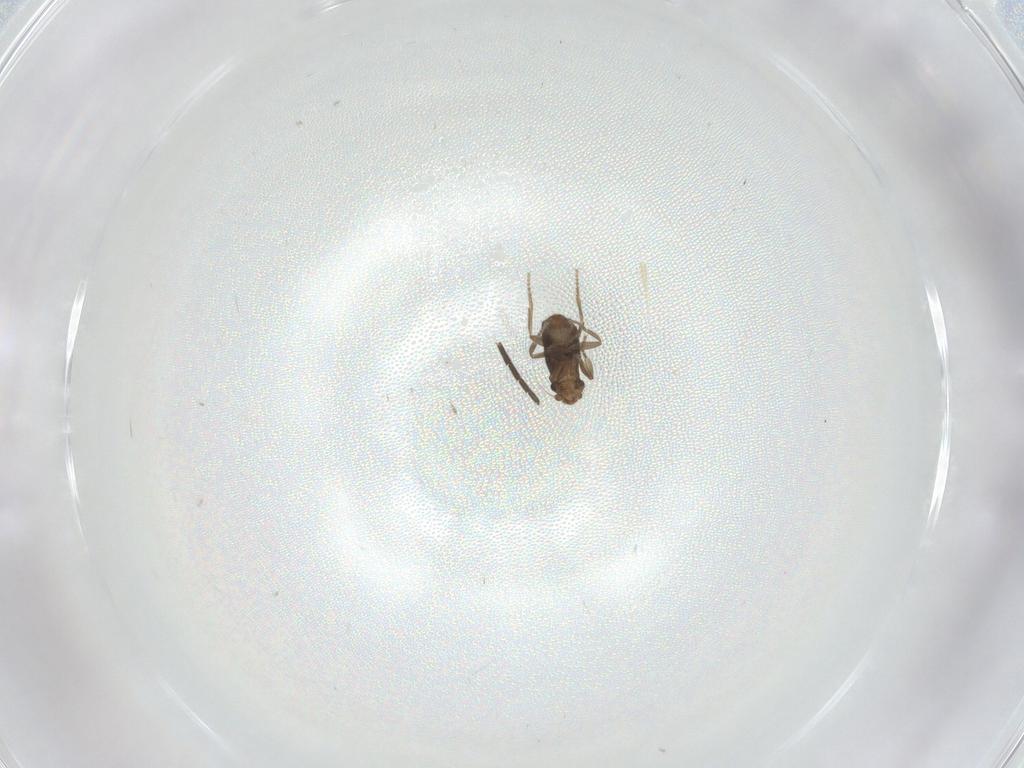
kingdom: Animalia
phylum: Arthropoda
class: Insecta
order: Diptera
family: Phoridae
